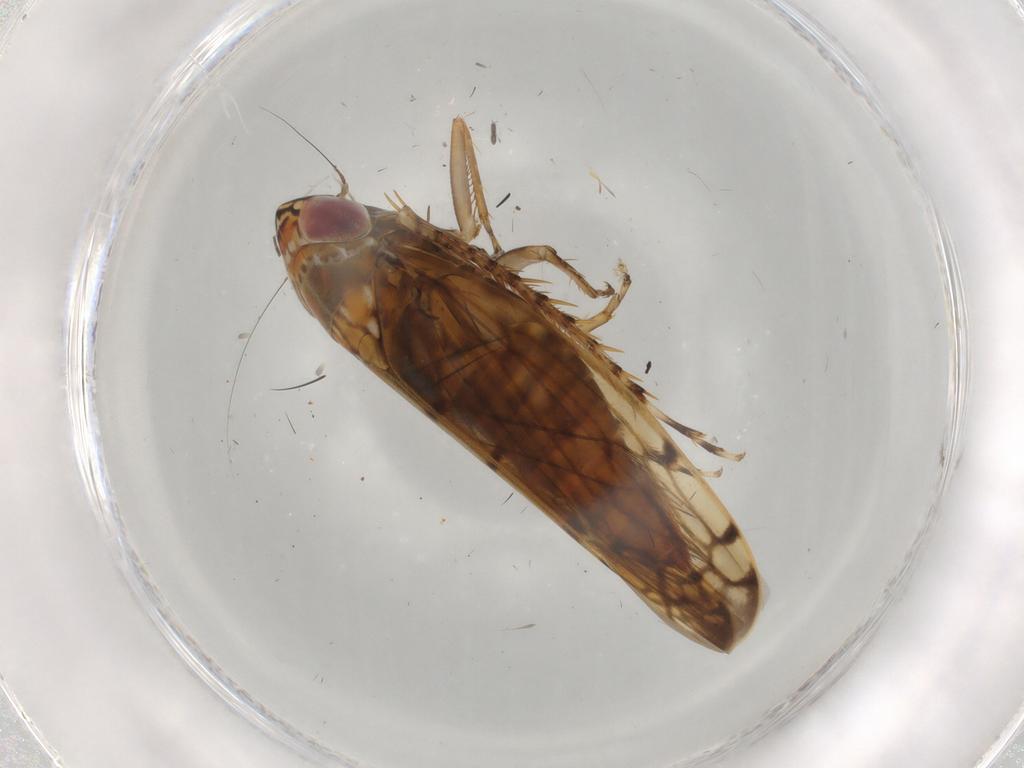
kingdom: Animalia
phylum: Arthropoda
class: Insecta
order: Hemiptera
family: Cicadellidae
